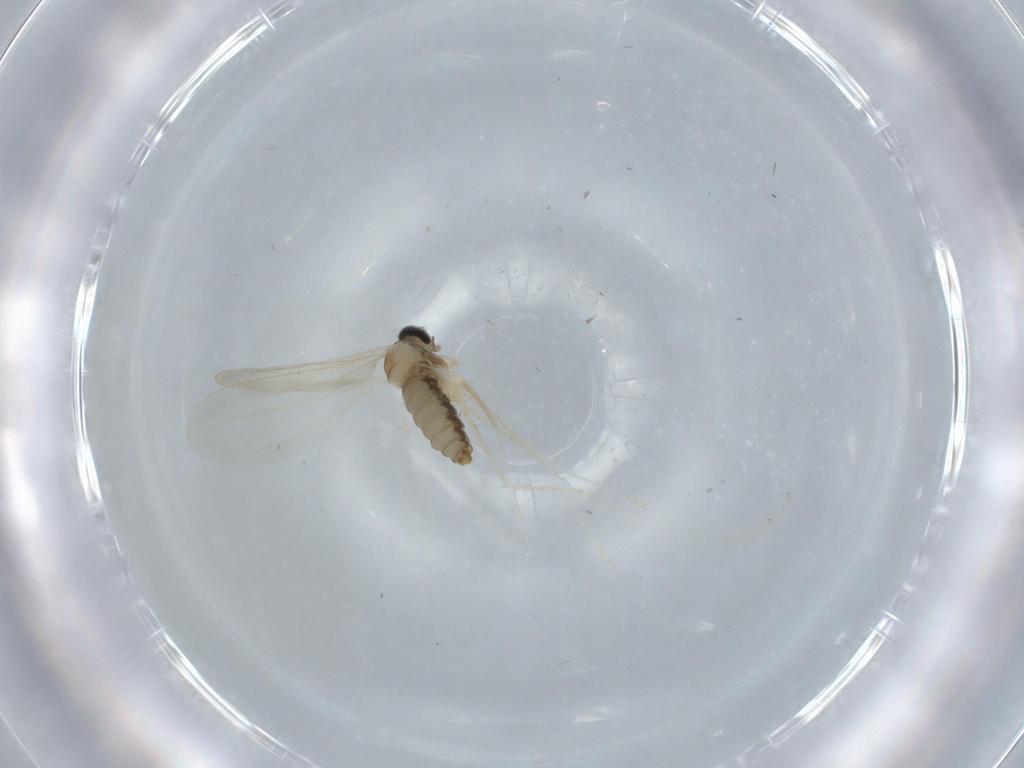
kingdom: Animalia
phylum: Arthropoda
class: Insecta
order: Diptera
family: Cecidomyiidae
